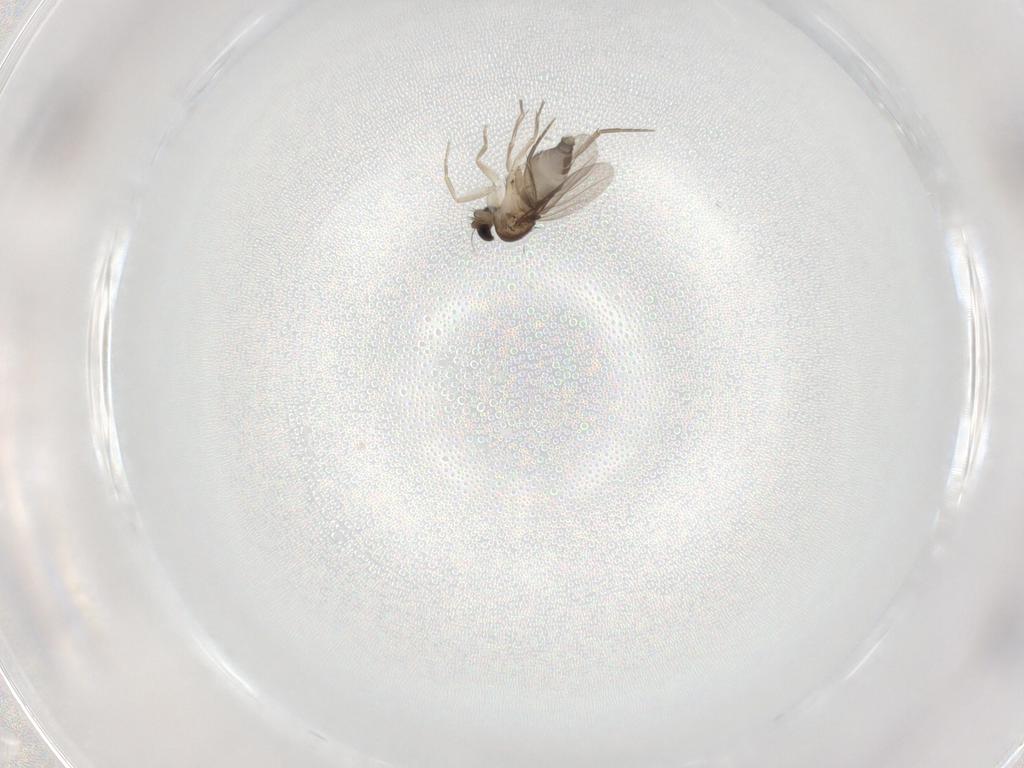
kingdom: Animalia
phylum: Arthropoda
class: Insecta
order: Diptera
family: Phoridae
